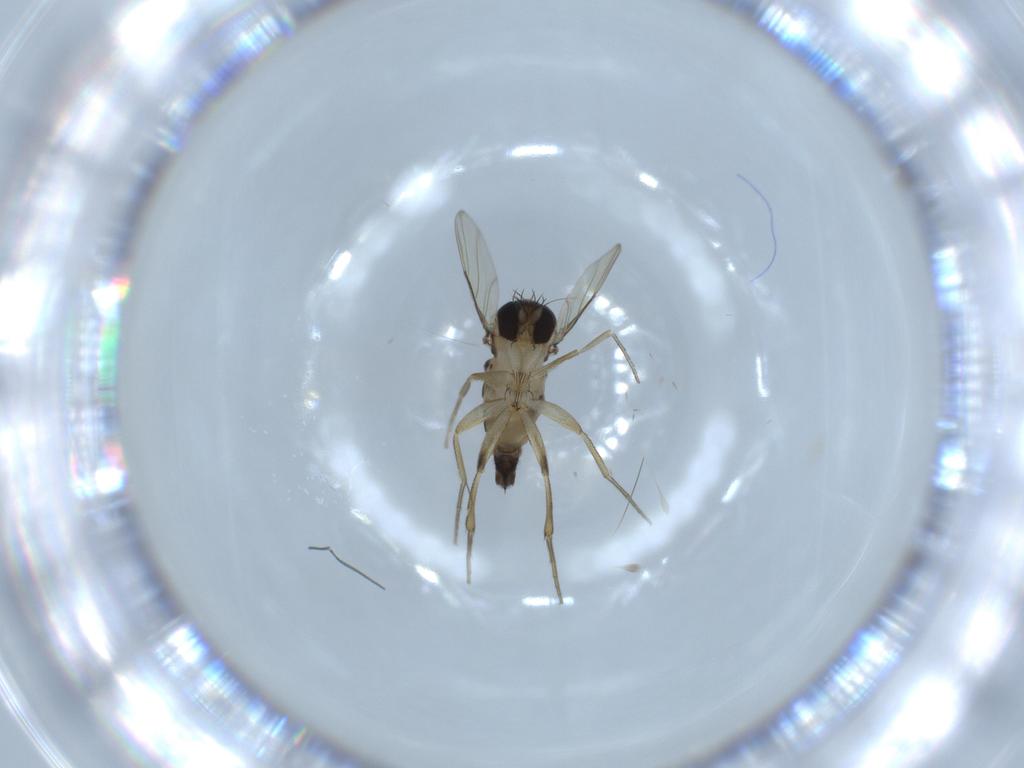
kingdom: Animalia
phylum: Arthropoda
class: Insecta
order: Diptera
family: Phoridae
